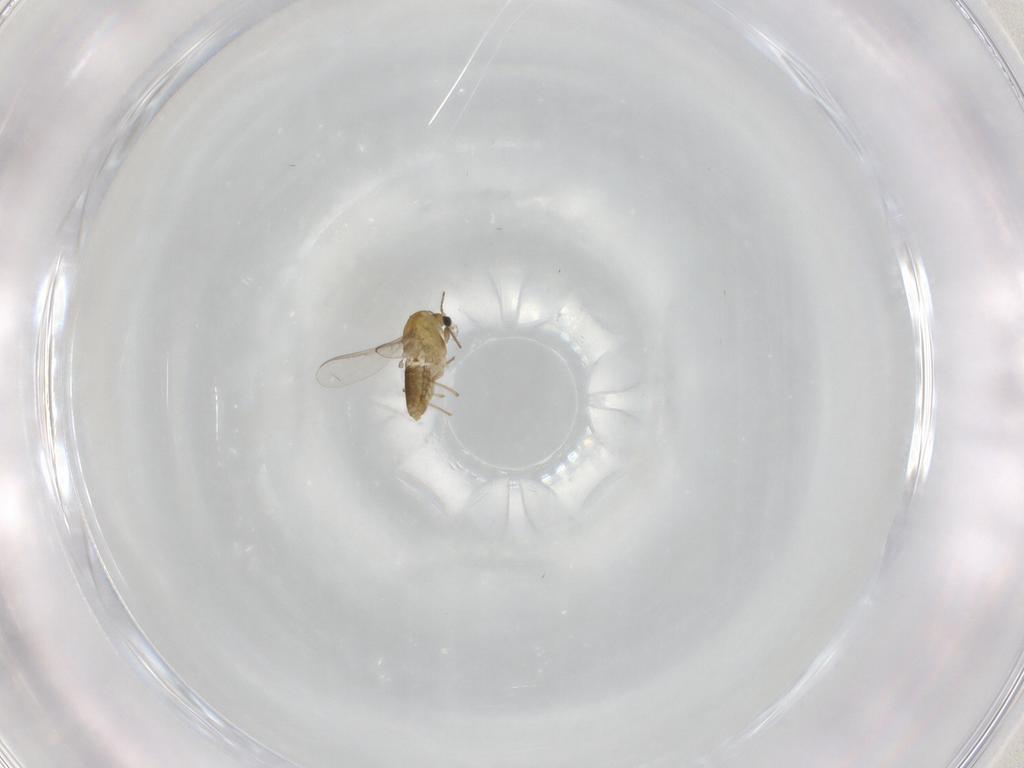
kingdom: Animalia
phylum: Arthropoda
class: Insecta
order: Diptera
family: Chironomidae
